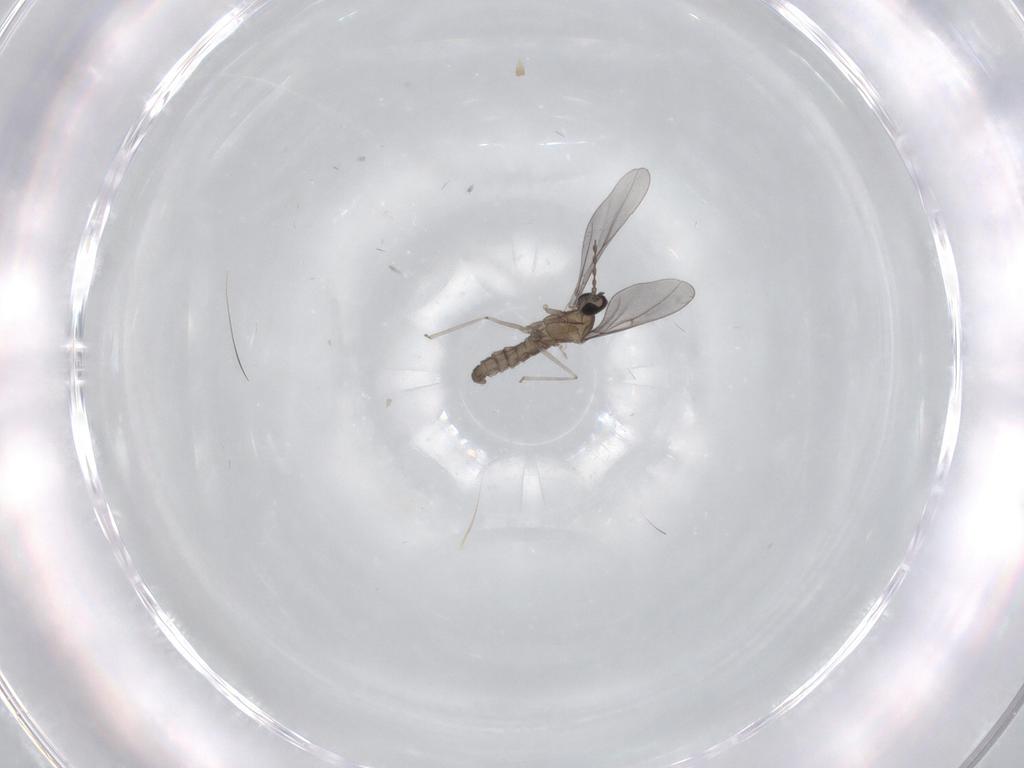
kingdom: Animalia
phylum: Arthropoda
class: Insecta
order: Diptera
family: Cecidomyiidae
